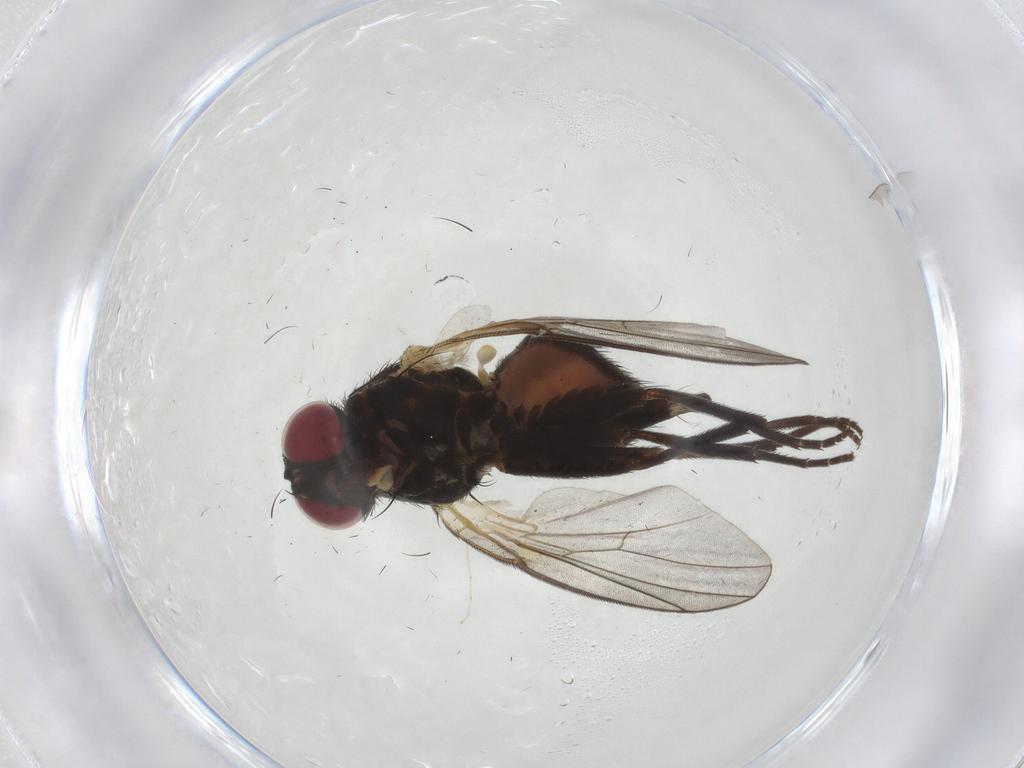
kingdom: Animalia
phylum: Arthropoda
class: Insecta
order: Diptera
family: Agromyzidae
